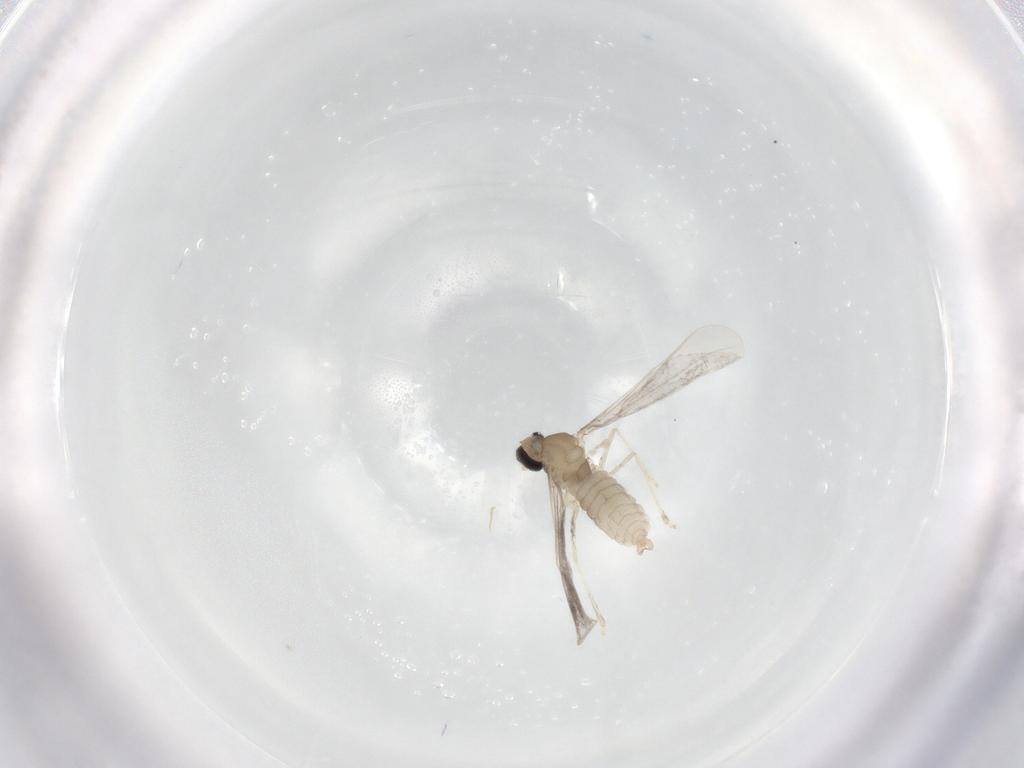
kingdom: Animalia
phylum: Arthropoda
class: Insecta
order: Diptera
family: Cecidomyiidae
